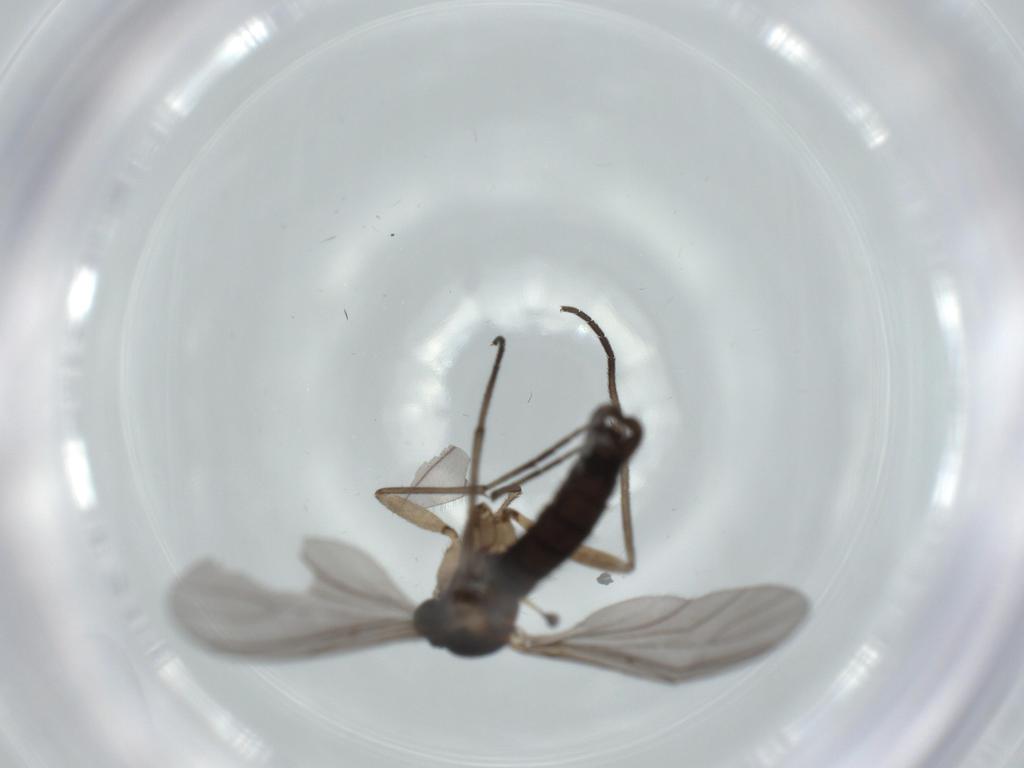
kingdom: Animalia
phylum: Arthropoda
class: Insecta
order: Diptera
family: Sciaridae
